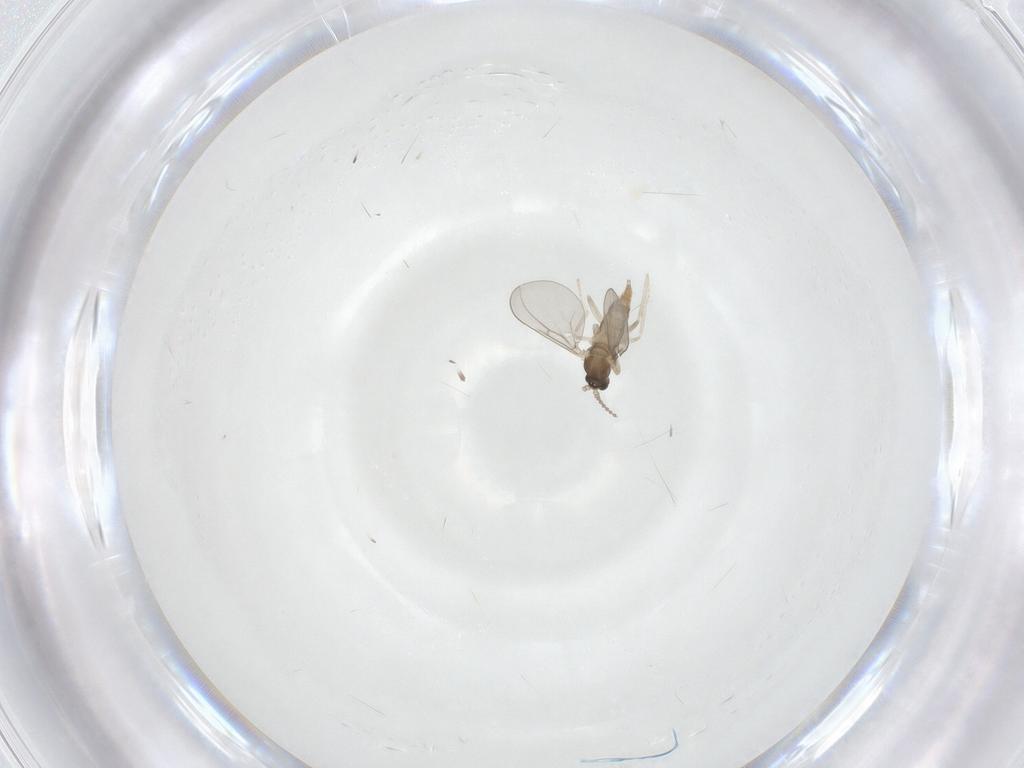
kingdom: Animalia
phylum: Arthropoda
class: Insecta
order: Diptera
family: Cecidomyiidae
